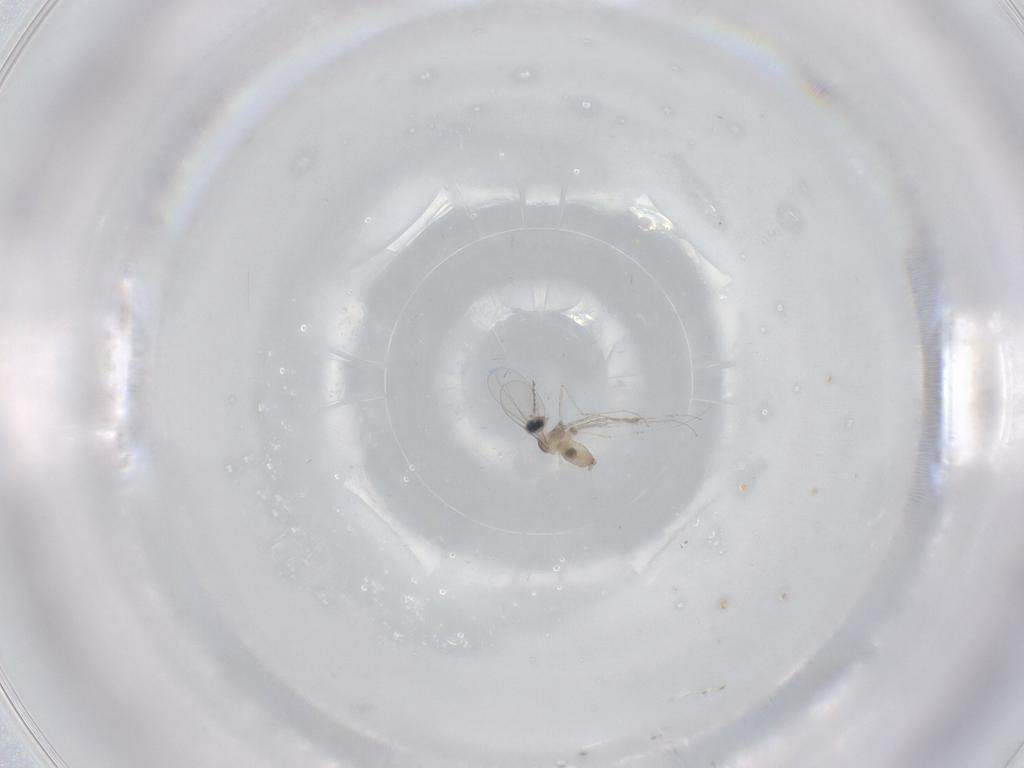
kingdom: Animalia
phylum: Arthropoda
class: Insecta
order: Diptera
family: Cecidomyiidae
